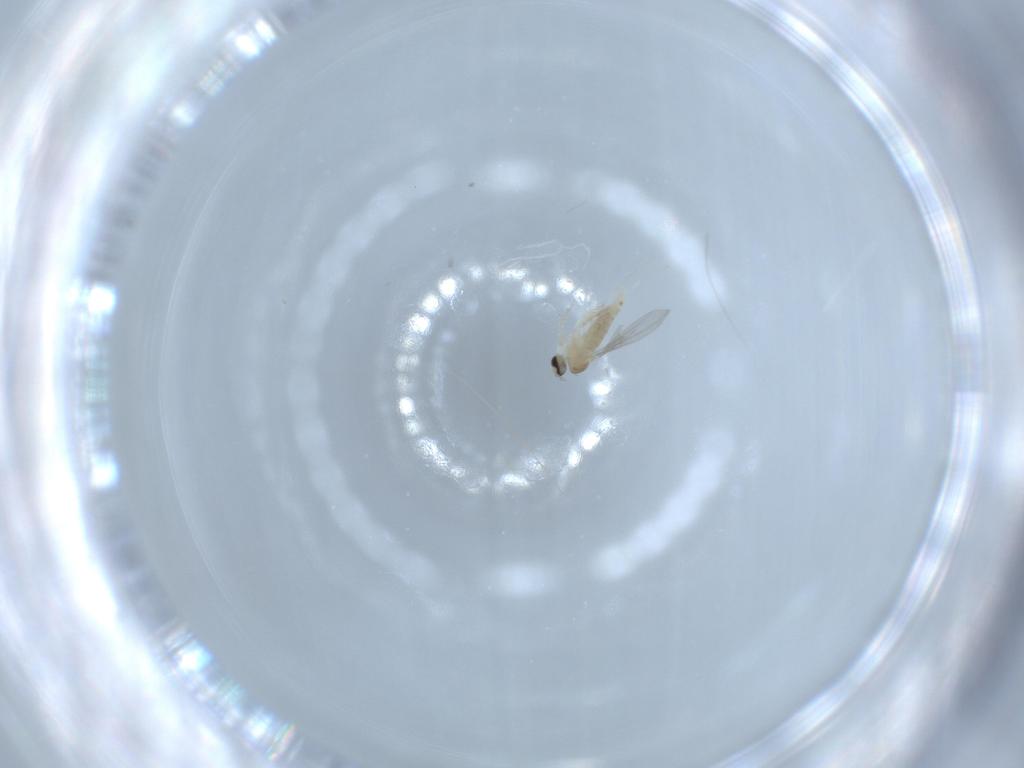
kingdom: Animalia
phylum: Arthropoda
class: Insecta
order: Diptera
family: Cecidomyiidae
